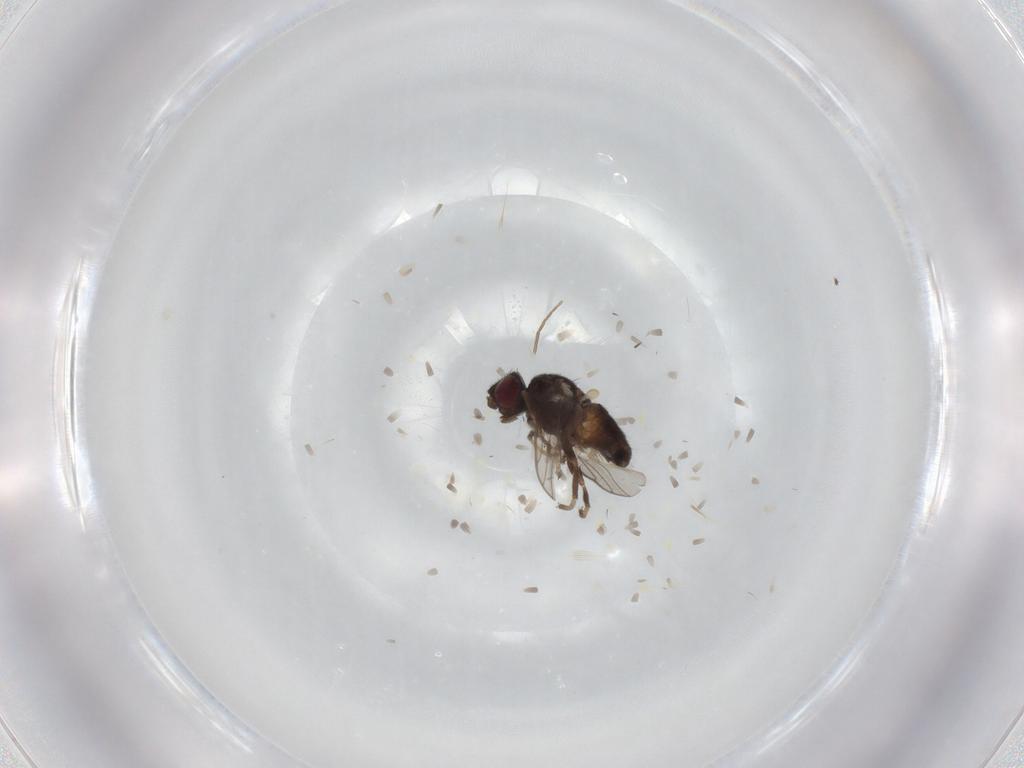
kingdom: Animalia
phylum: Arthropoda
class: Insecta
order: Diptera
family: Chloropidae
